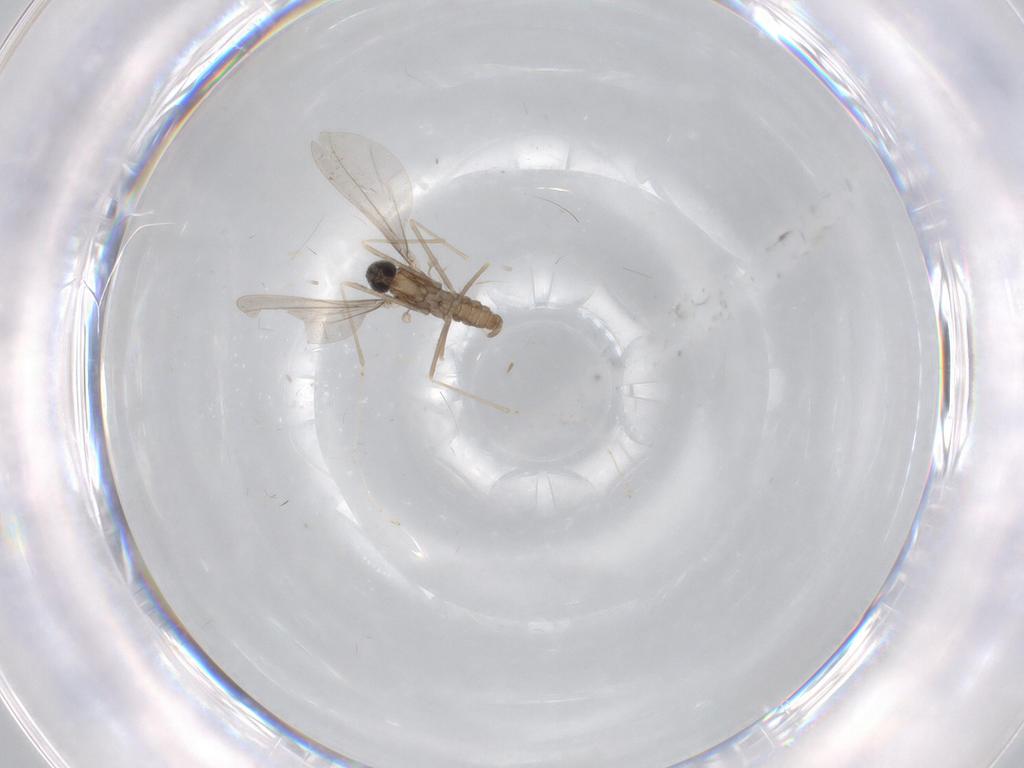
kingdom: Animalia
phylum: Arthropoda
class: Insecta
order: Diptera
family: Cecidomyiidae
